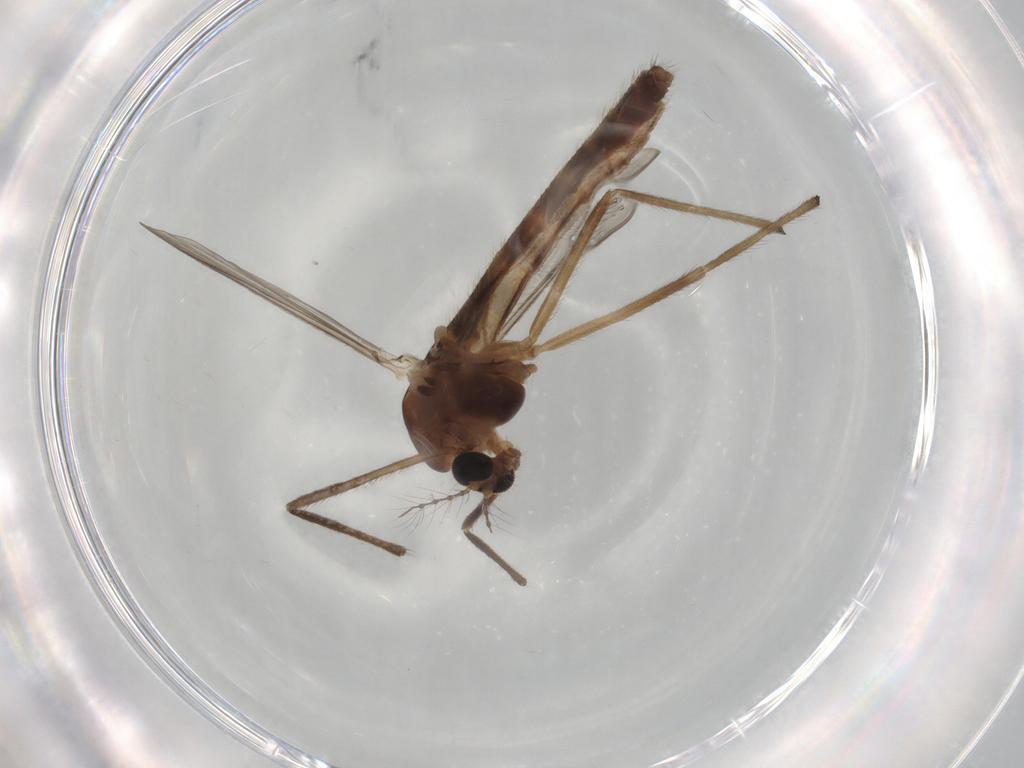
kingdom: Animalia
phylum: Arthropoda
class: Insecta
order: Diptera
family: Chironomidae
